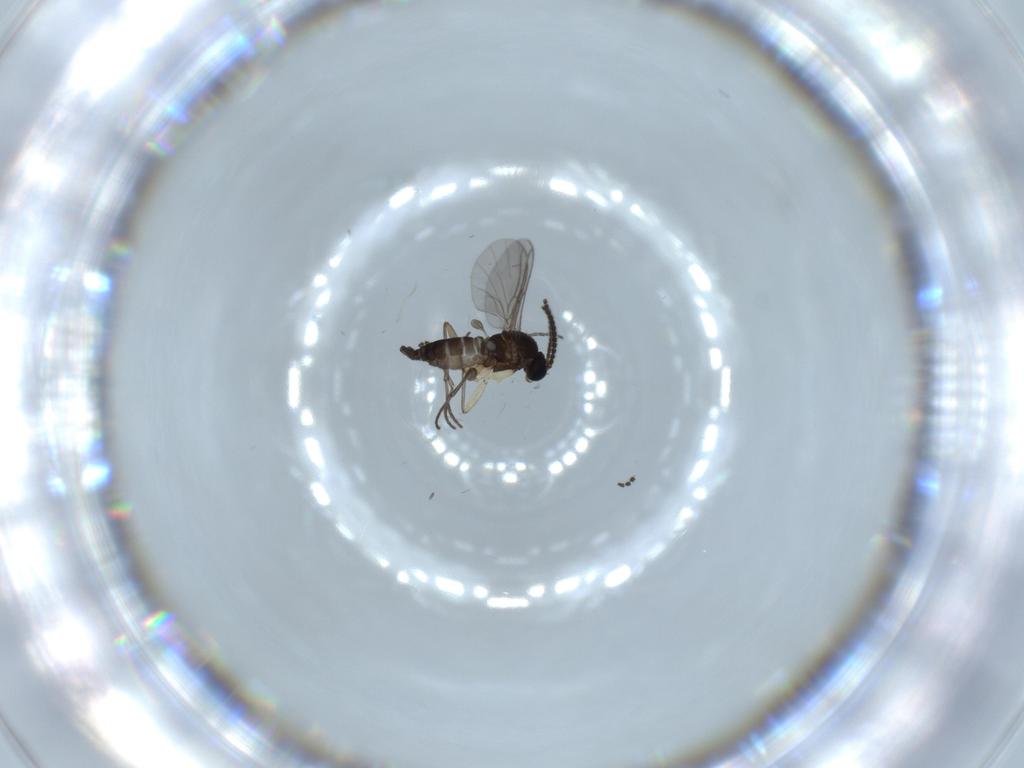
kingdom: Animalia
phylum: Arthropoda
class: Insecta
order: Diptera
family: Sciaridae
